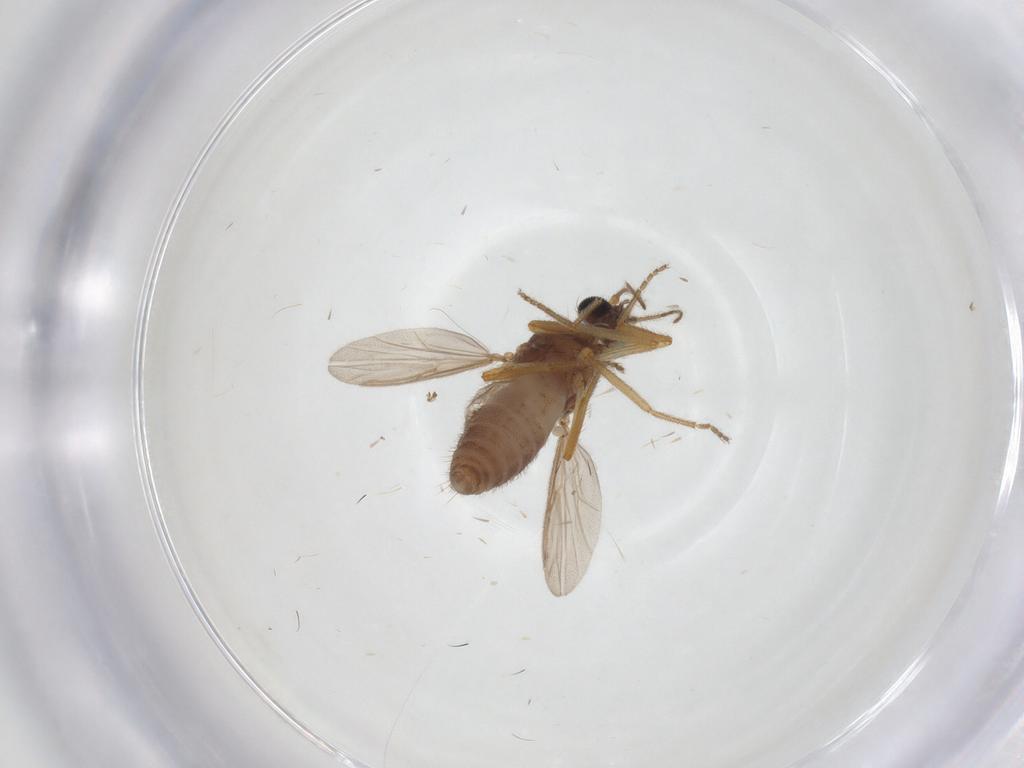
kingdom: Animalia
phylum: Arthropoda
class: Insecta
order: Diptera
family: Ceratopogonidae
